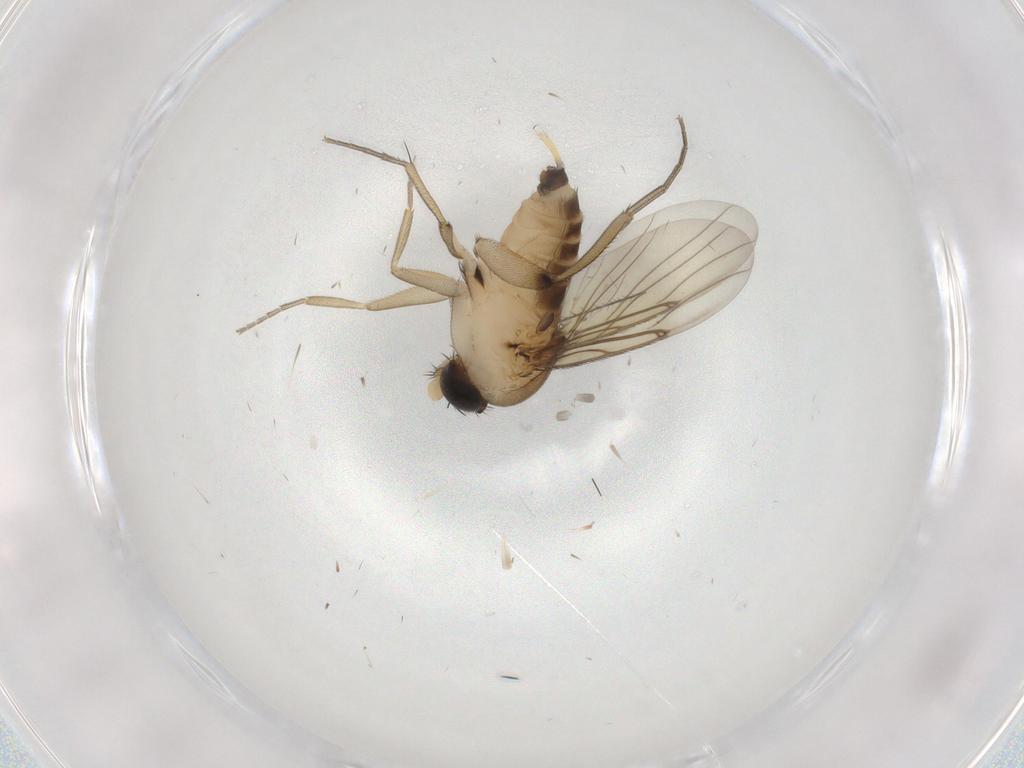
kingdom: Animalia
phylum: Arthropoda
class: Insecta
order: Diptera
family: Phoridae
